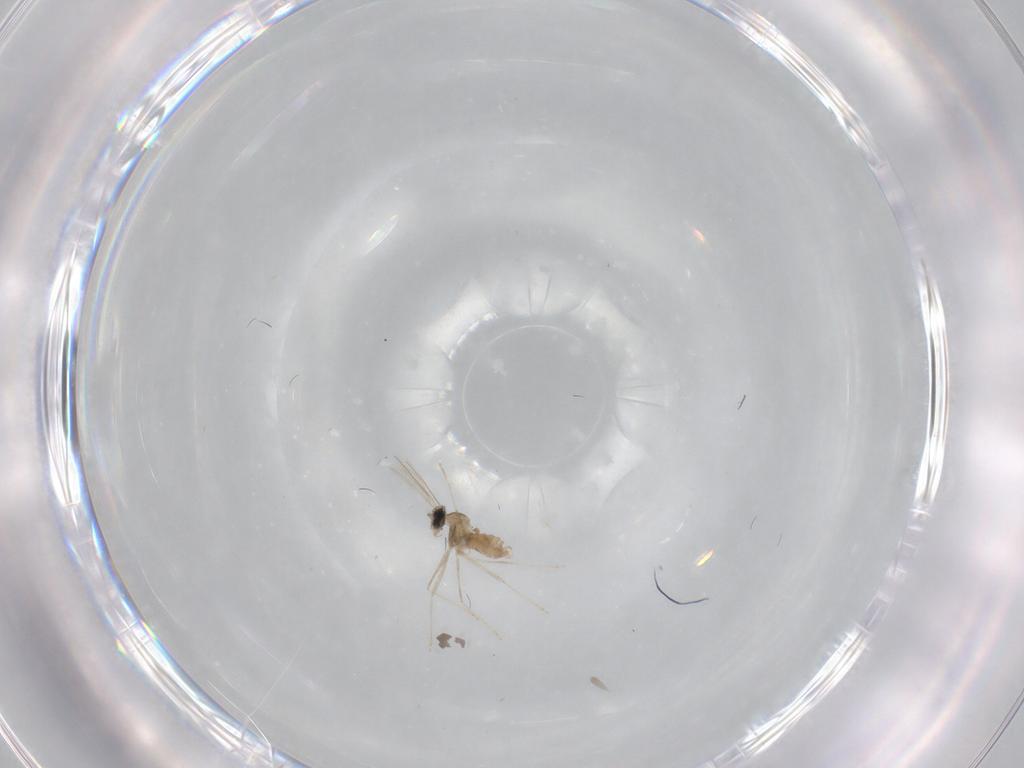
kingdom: Animalia
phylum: Arthropoda
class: Insecta
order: Diptera
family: Cecidomyiidae
